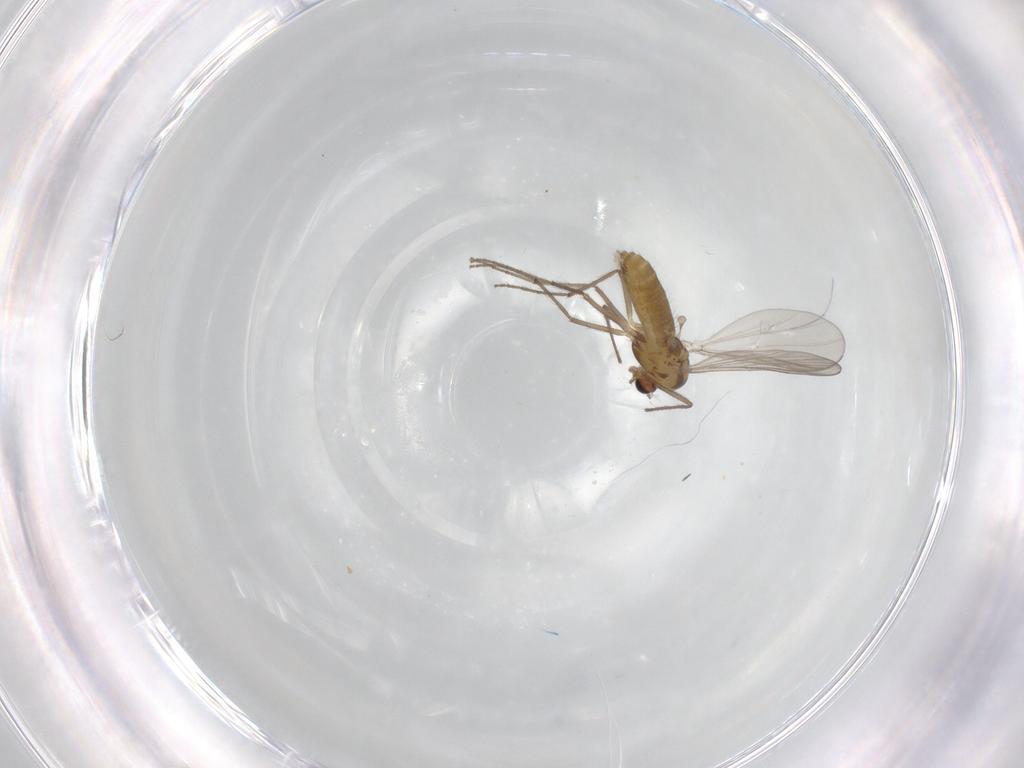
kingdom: Animalia
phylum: Arthropoda
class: Insecta
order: Diptera
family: Chironomidae
